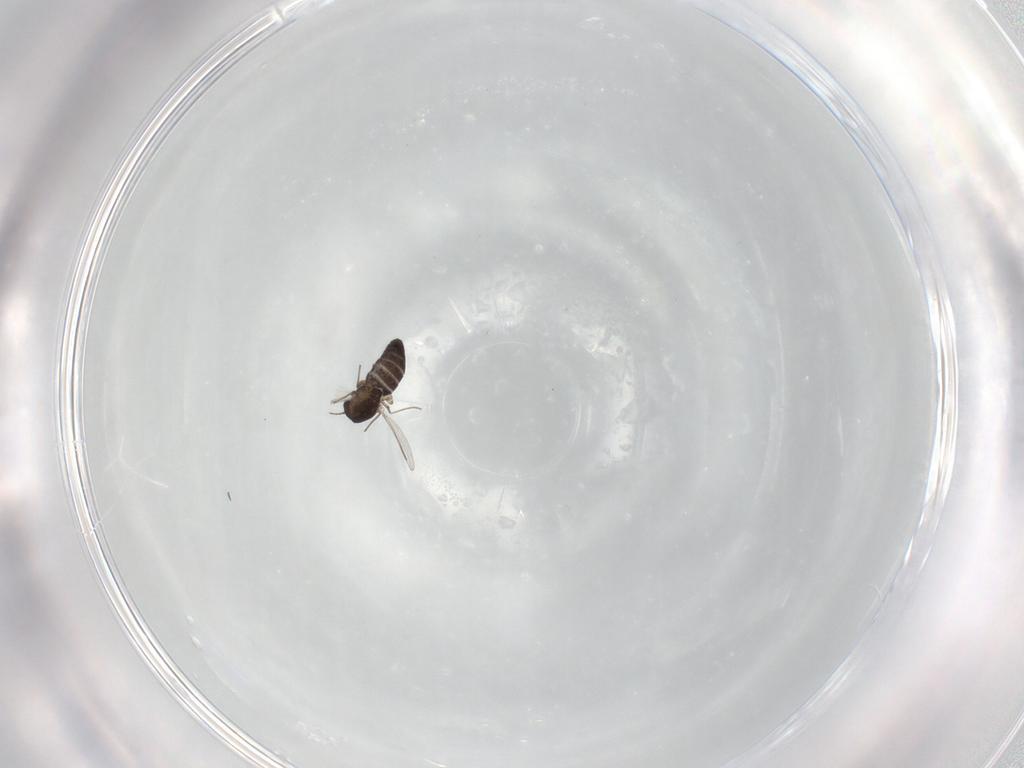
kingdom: Animalia
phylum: Arthropoda
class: Insecta
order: Diptera
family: Chironomidae
